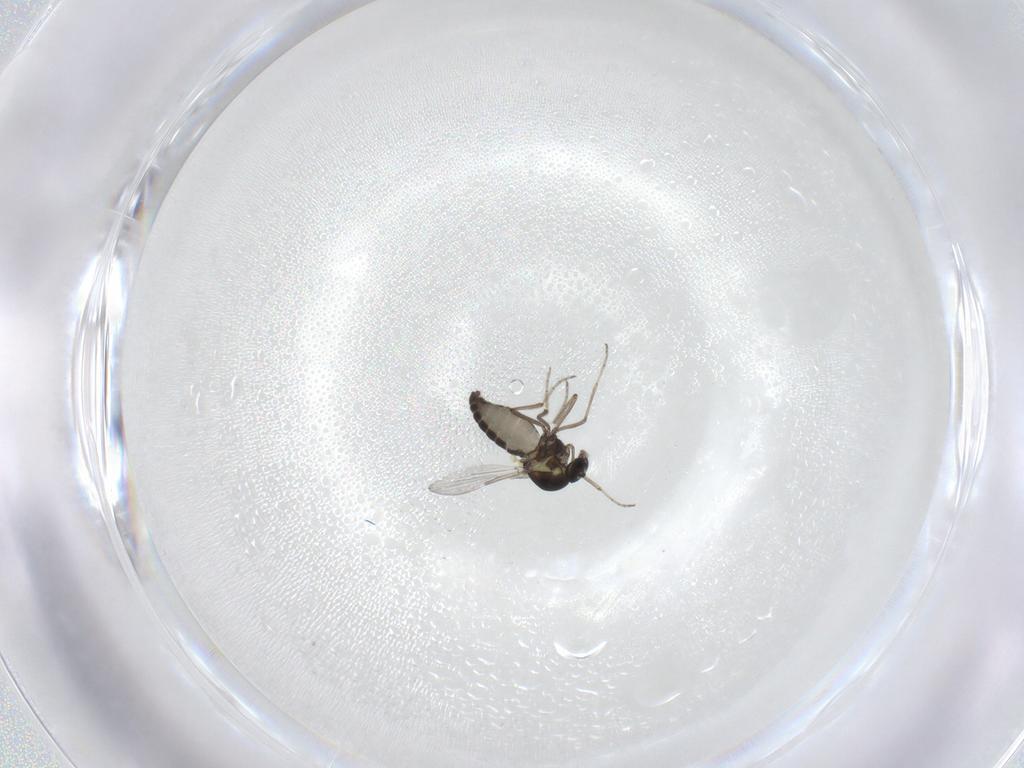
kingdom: Animalia
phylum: Arthropoda
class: Insecta
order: Diptera
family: Ceratopogonidae
